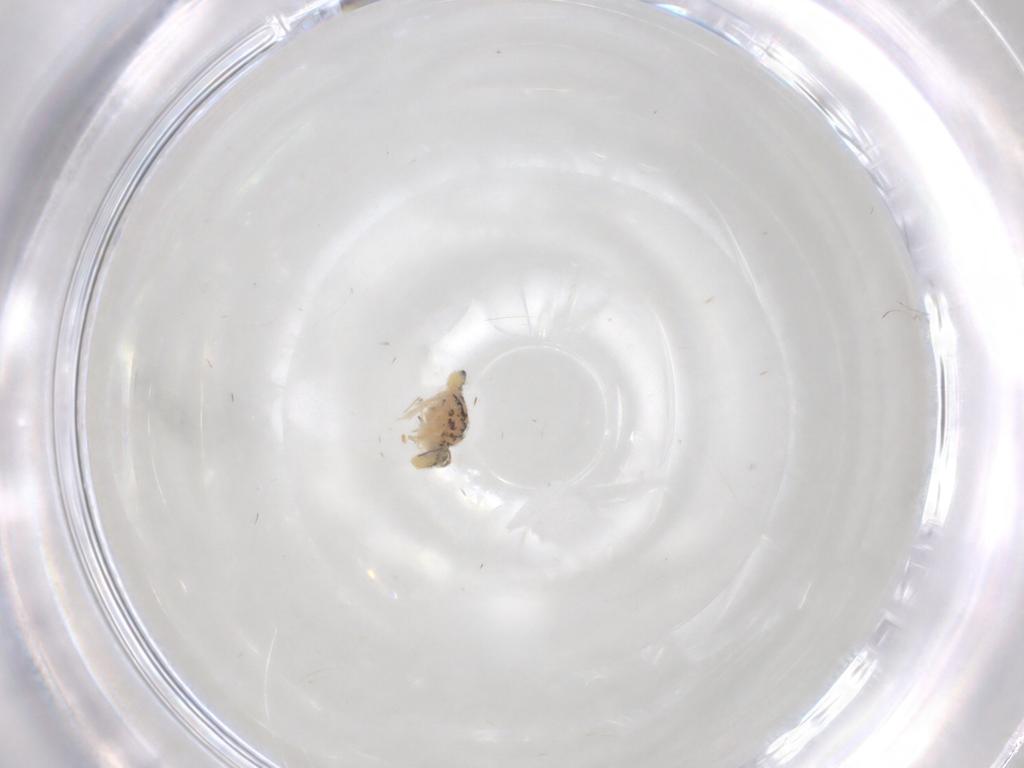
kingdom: Animalia
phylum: Arthropoda
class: Collembola
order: Symphypleona
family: Bourletiellidae
